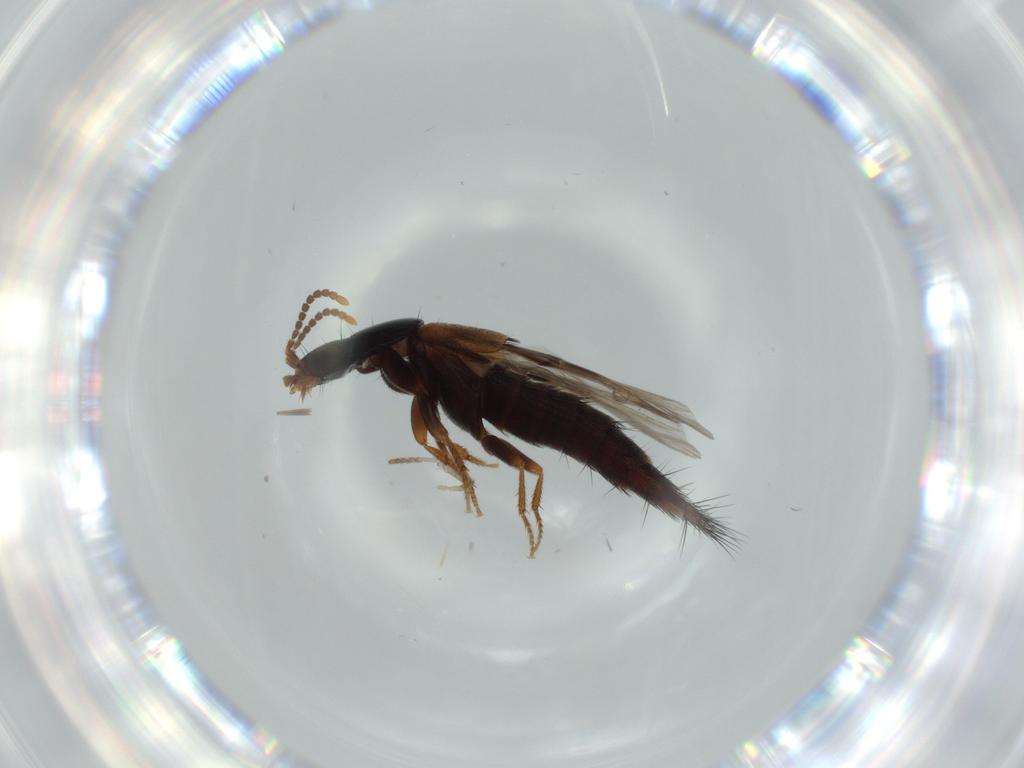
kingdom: Animalia
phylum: Arthropoda
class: Insecta
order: Coleoptera
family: Staphylinidae
